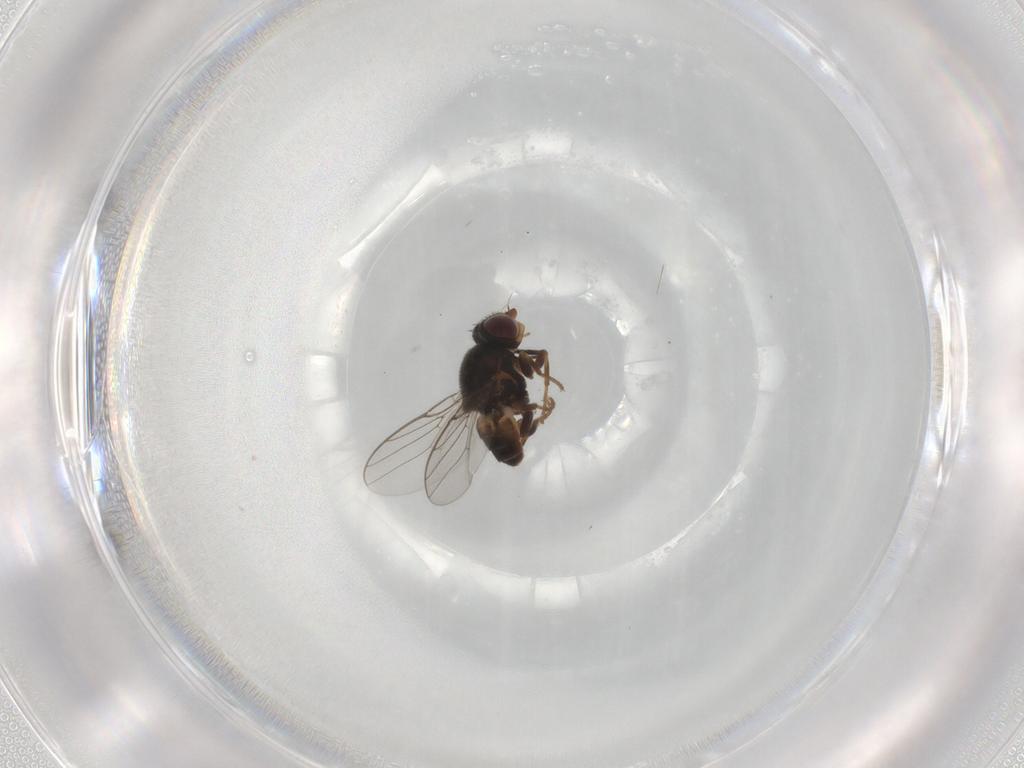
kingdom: Animalia
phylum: Arthropoda
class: Insecta
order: Diptera
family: Chloropidae
